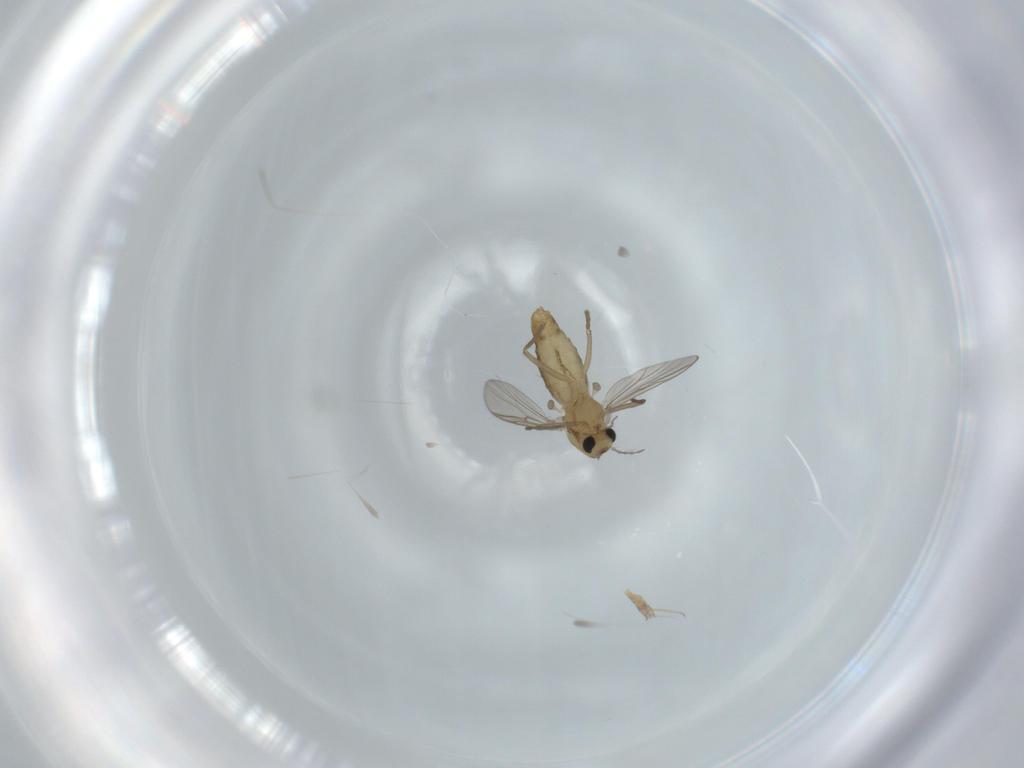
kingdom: Animalia
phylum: Arthropoda
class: Insecta
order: Diptera
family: Chironomidae
